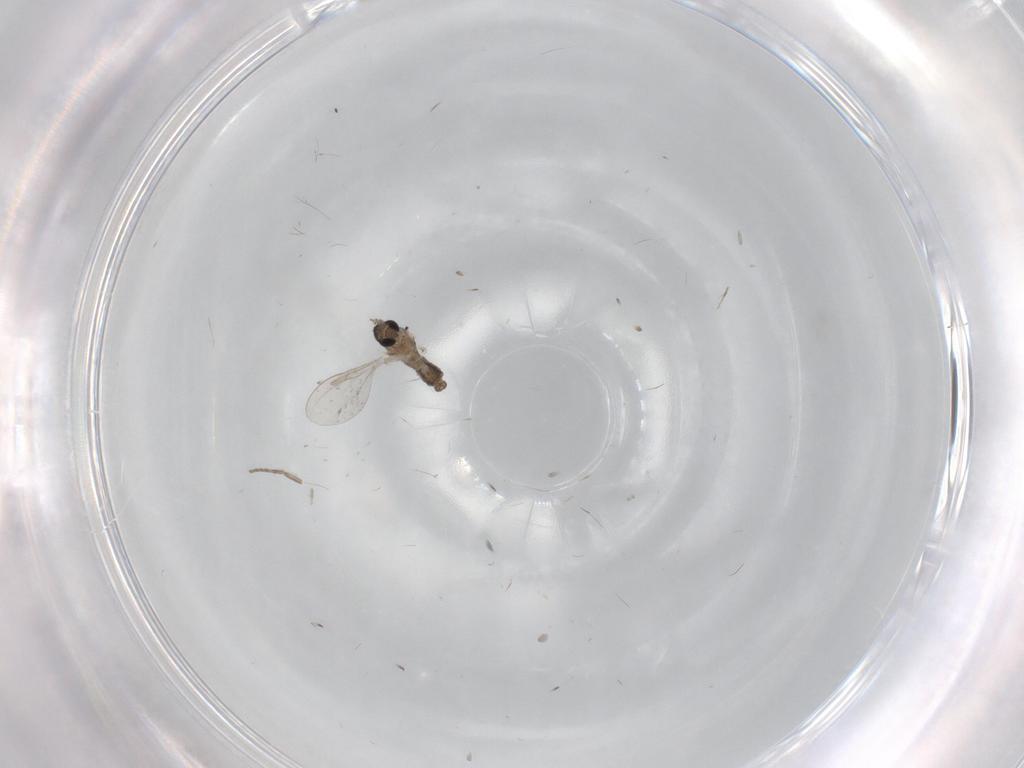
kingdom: Animalia
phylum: Arthropoda
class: Insecta
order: Diptera
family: Cecidomyiidae
